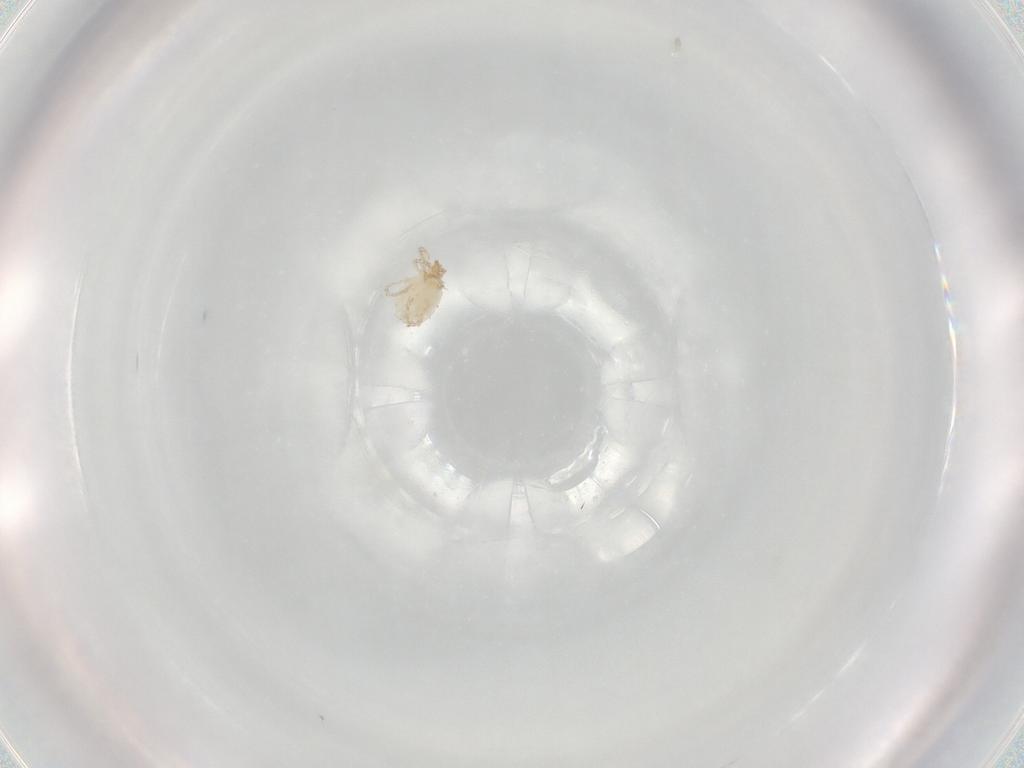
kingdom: Animalia
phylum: Arthropoda
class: Arachnida
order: Trombidiformes
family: Erythraeidae
